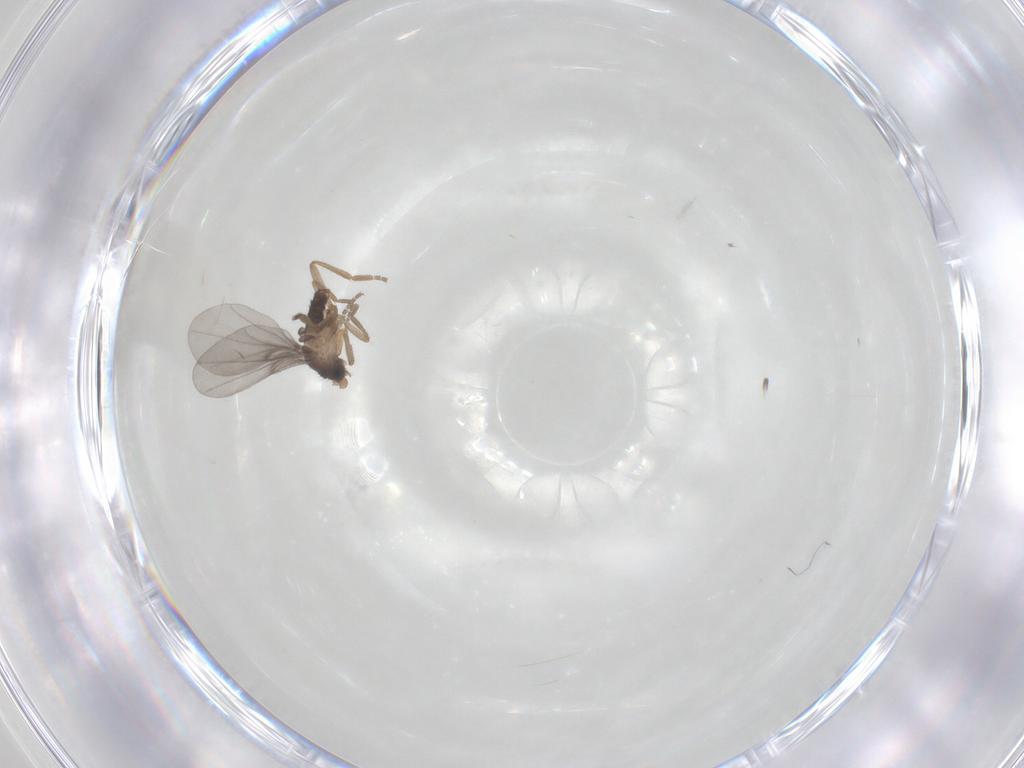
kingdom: Animalia
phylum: Arthropoda
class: Insecta
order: Diptera
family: Phoridae
